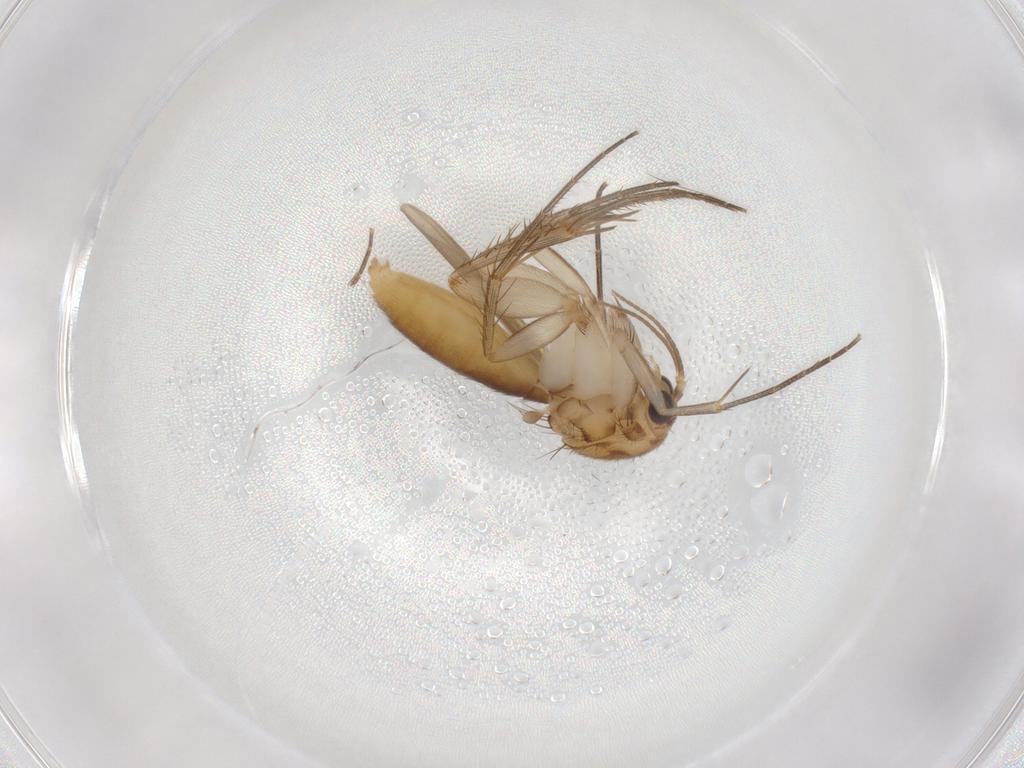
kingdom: Animalia
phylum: Arthropoda
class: Insecta
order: Diptera
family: Mycetophilidae
